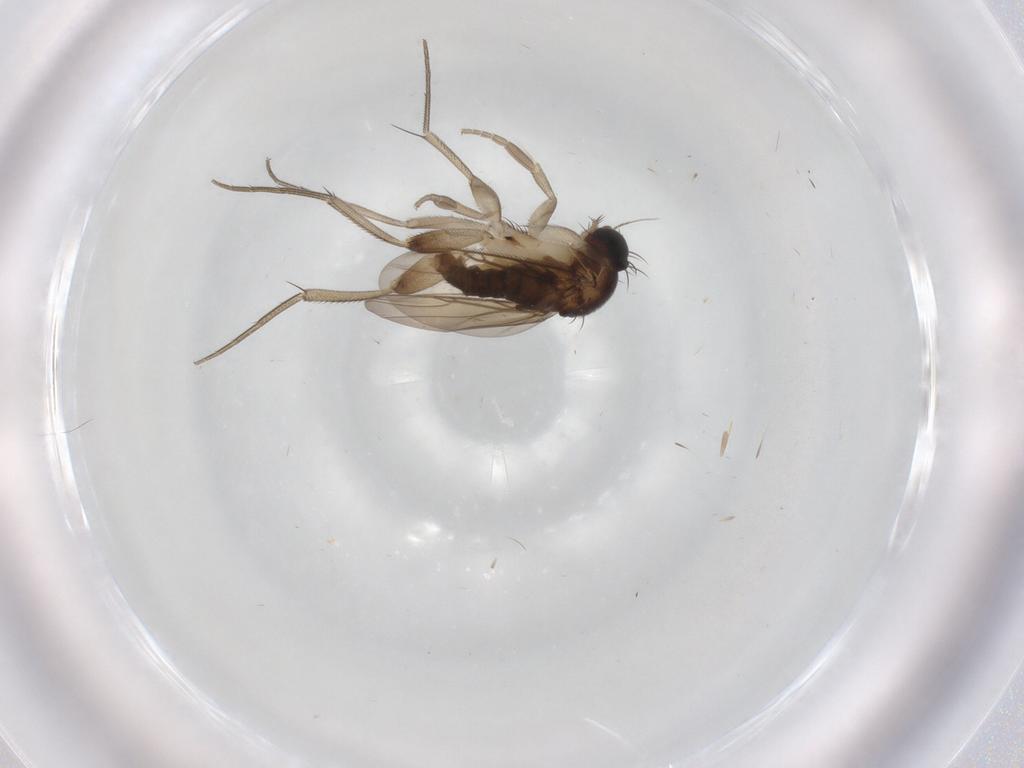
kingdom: Animalia
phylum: Arthropoda
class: Insecta
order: Diptera
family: Phoridae
